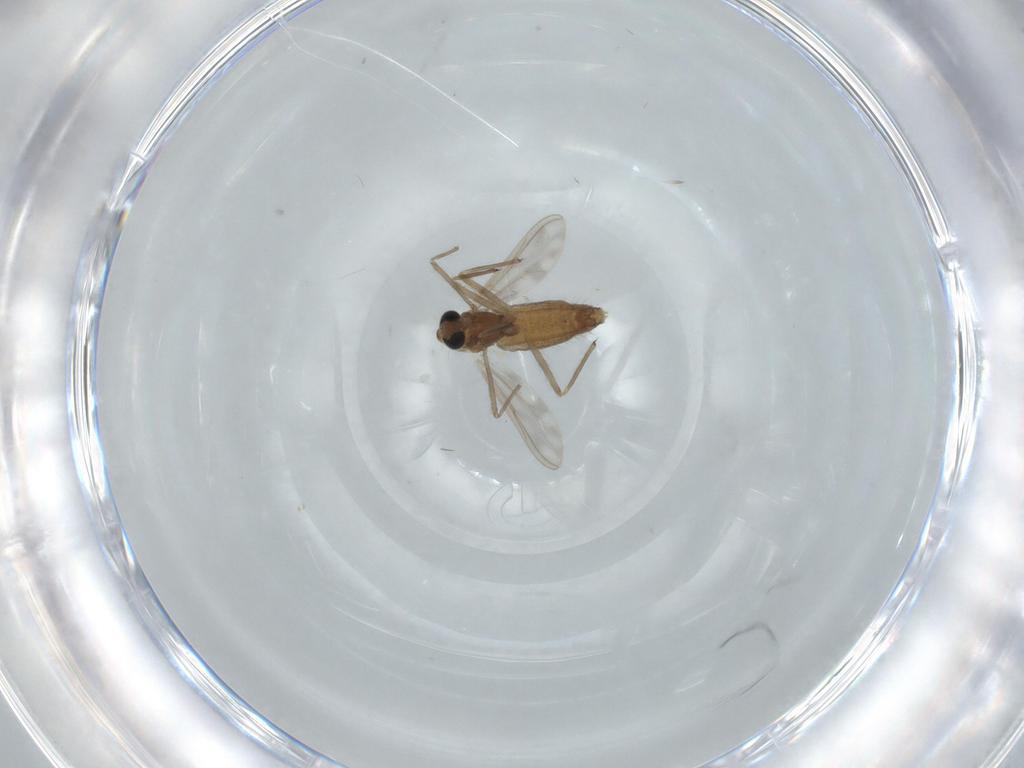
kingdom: Animalia
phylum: Arthropoda
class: Insecta
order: Diptera
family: Chironomidae
